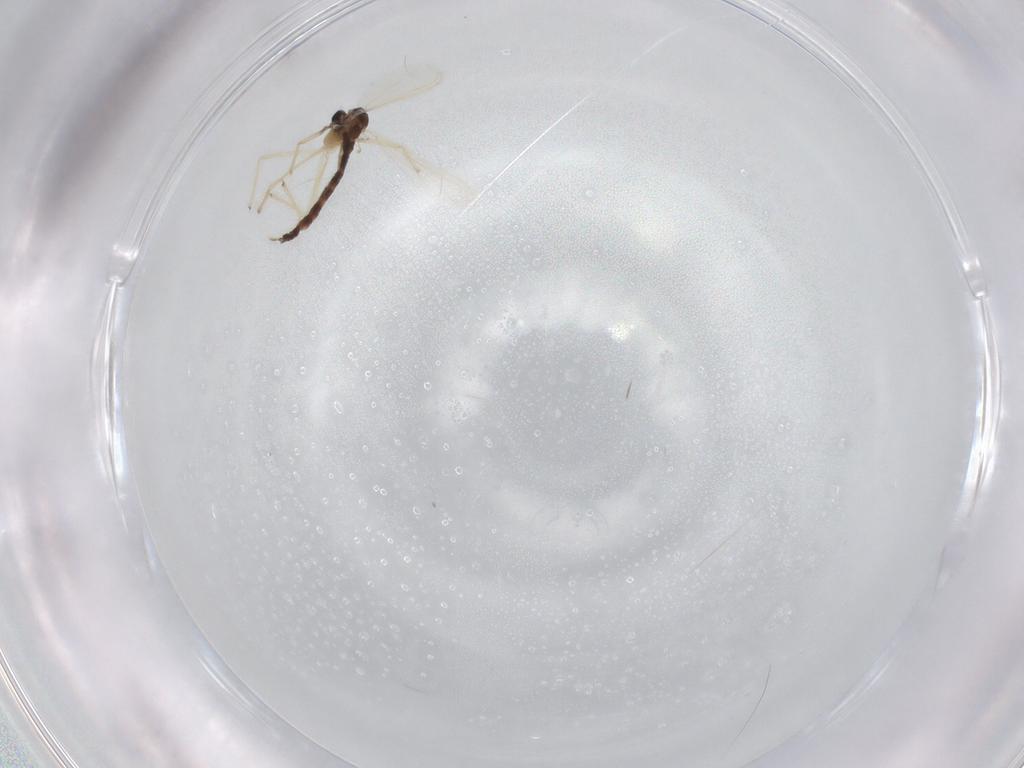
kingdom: Animalia
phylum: Arthropoda
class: Insecta
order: Diptera
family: Chironomidae
